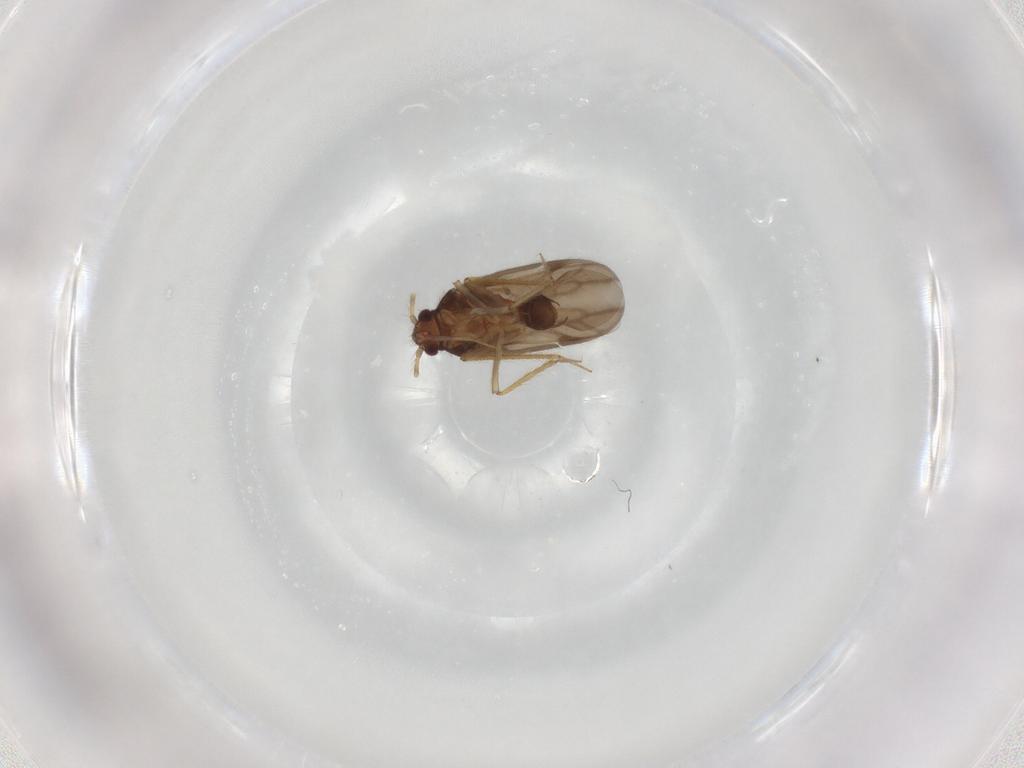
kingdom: Animalia
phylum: Arthropoda
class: Insecta
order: Hemiptera
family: Ceratocombidae
